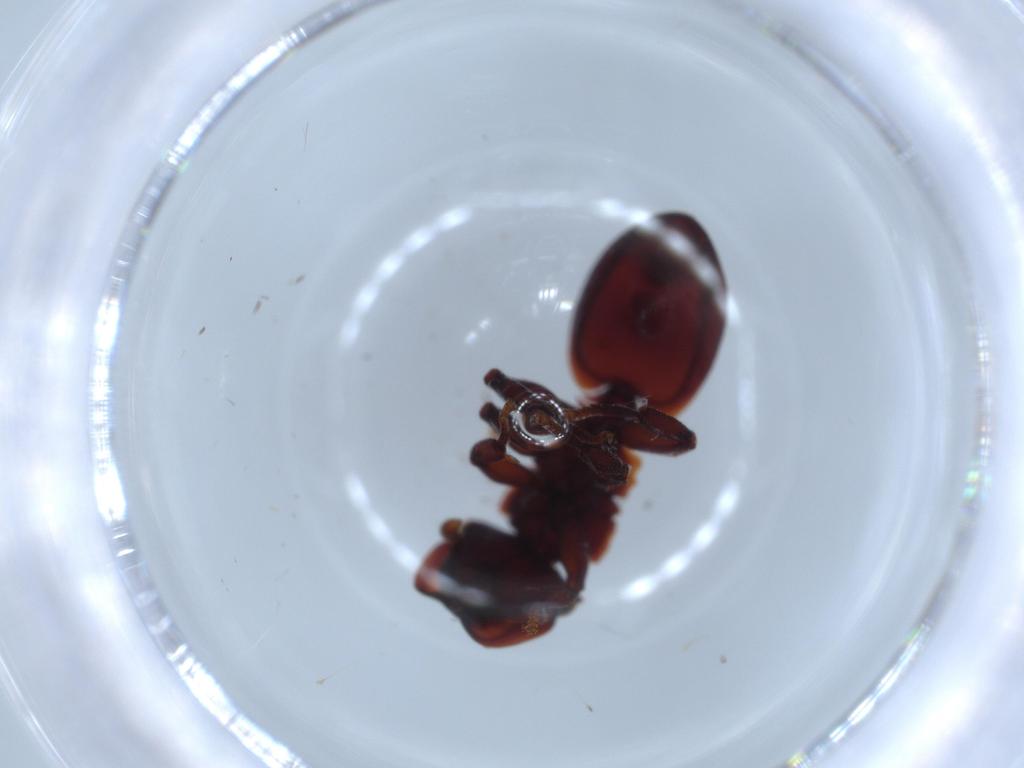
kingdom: Animalia
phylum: Arthropoda
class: Insecta
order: Hymenoptera
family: Formicidae
